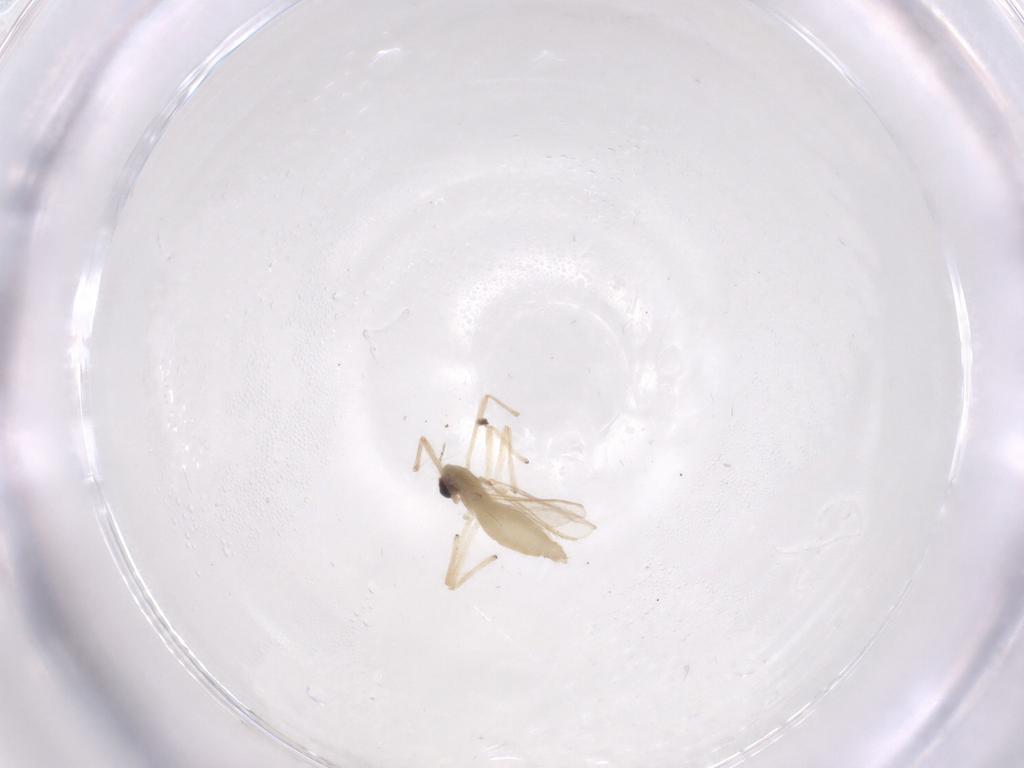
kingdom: Animalia
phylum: Arthropoda
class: Insecta
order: Diptera
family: Chironomidae
